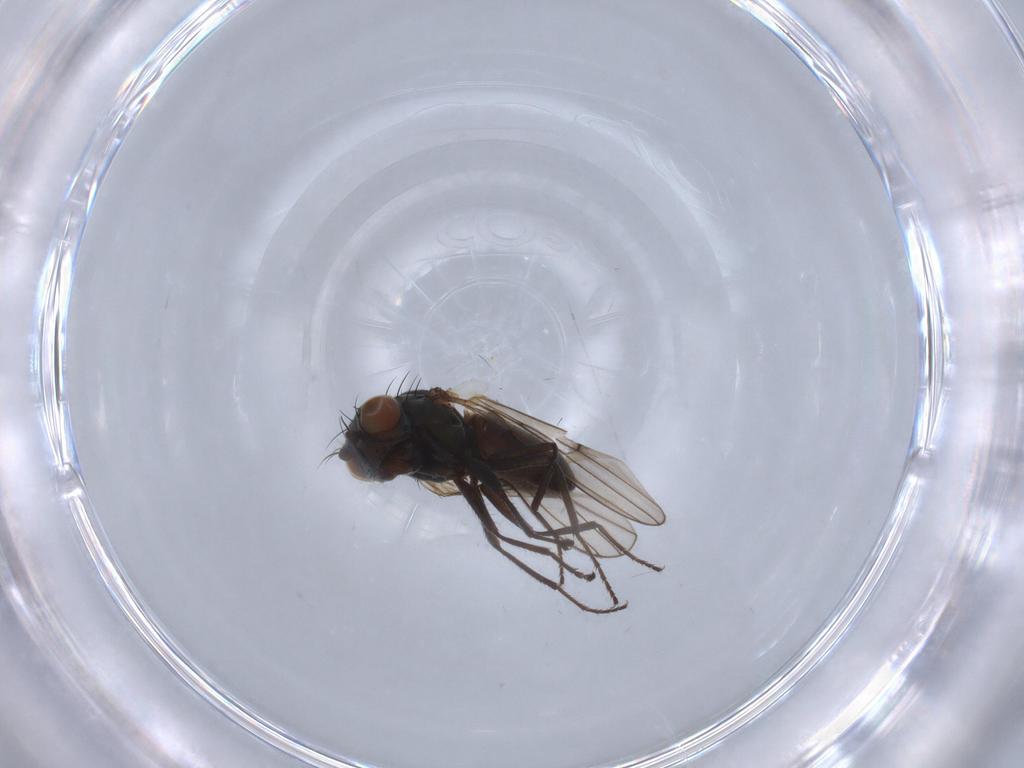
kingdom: Animalia
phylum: Arthropoda
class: Insecta
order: Diptera
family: Ephydridae
